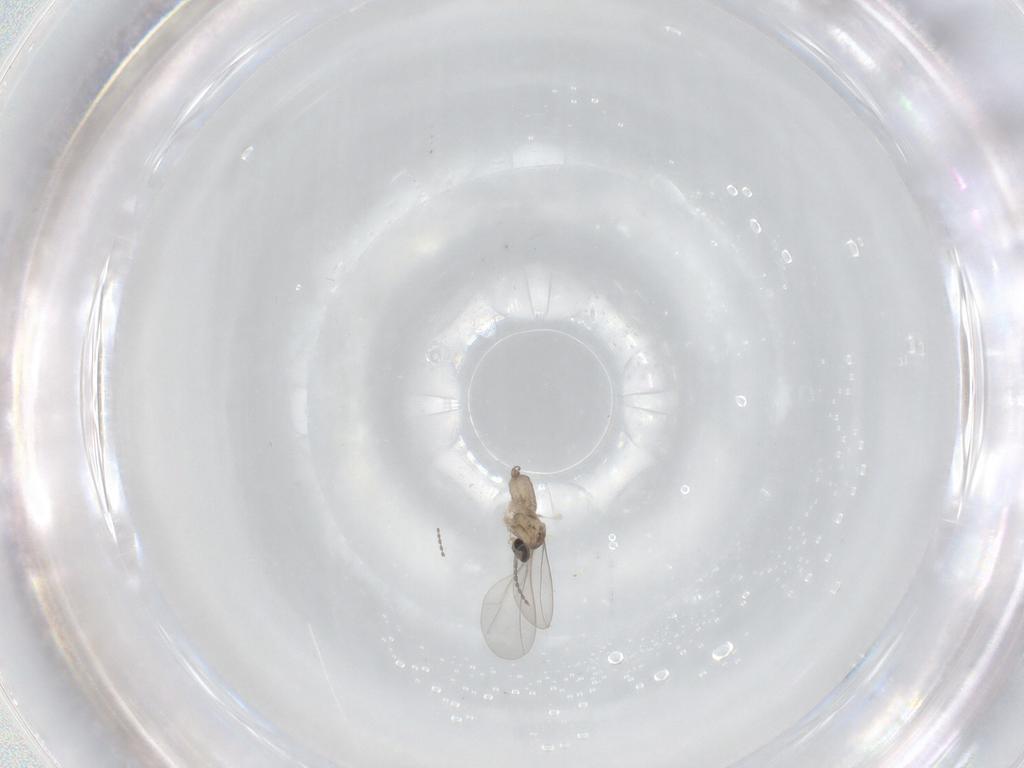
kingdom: Animalia
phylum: Arthropoda
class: Insecta
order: Diptera
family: Cecidomyiidae
